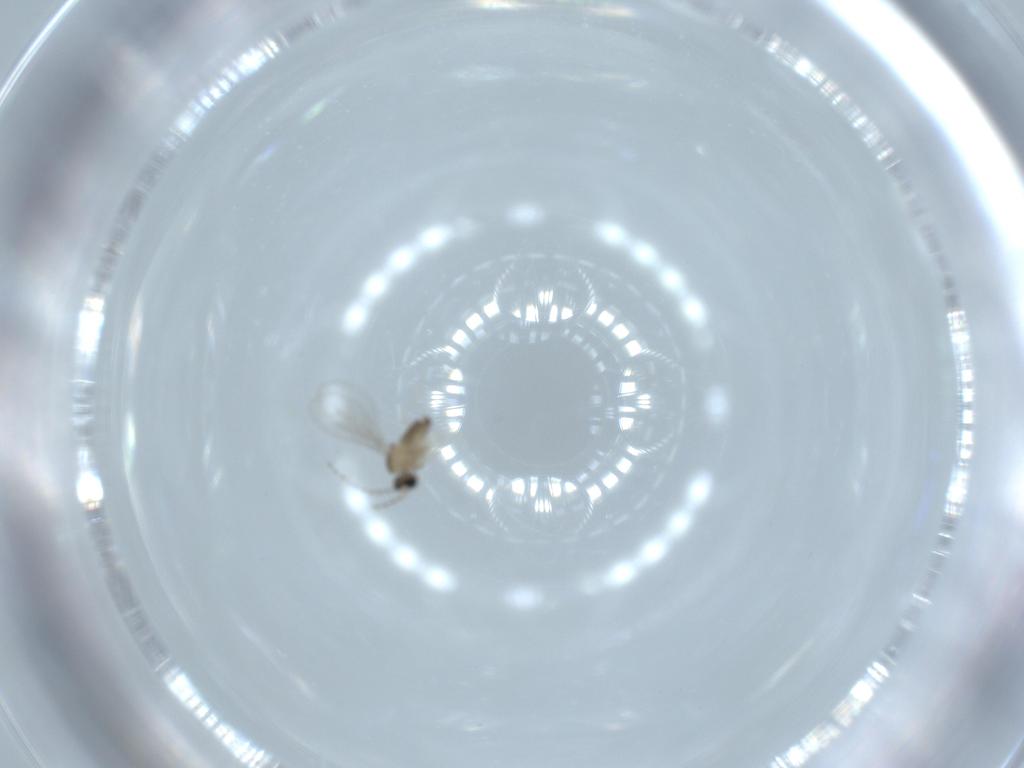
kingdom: Animalia
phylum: Arthropoda
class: Insecta
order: Diptera
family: Cecidomyiidae
